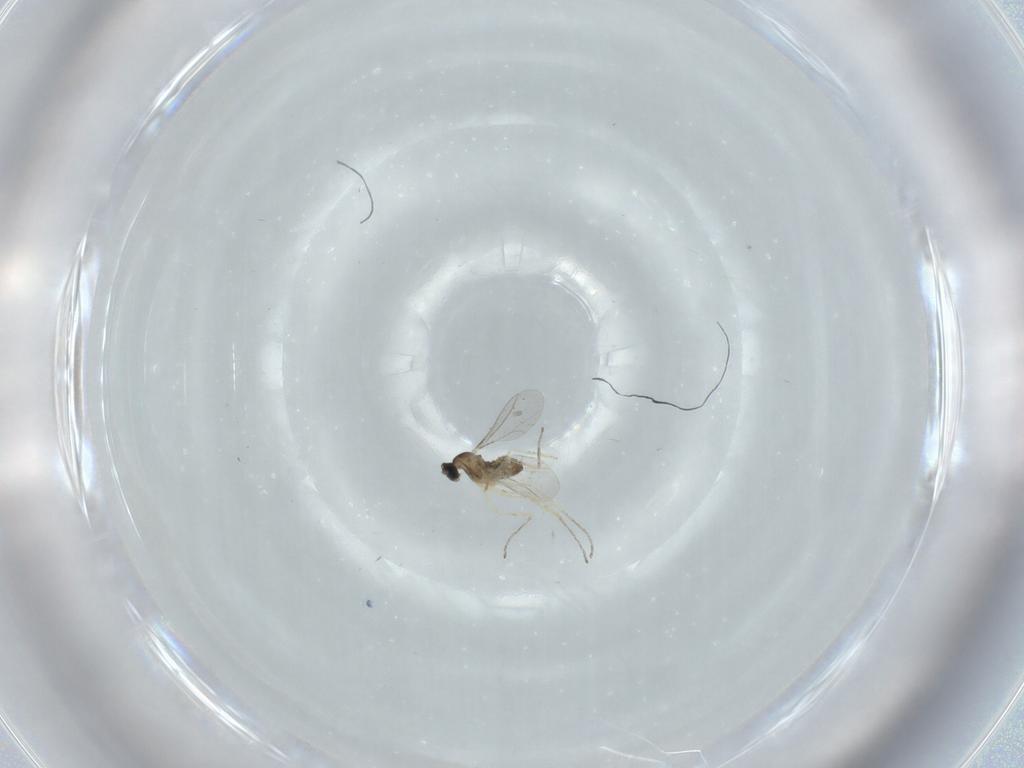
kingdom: Animalia
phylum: Arthropoda
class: Insecta
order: Diptera
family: Cecidomyiidae
